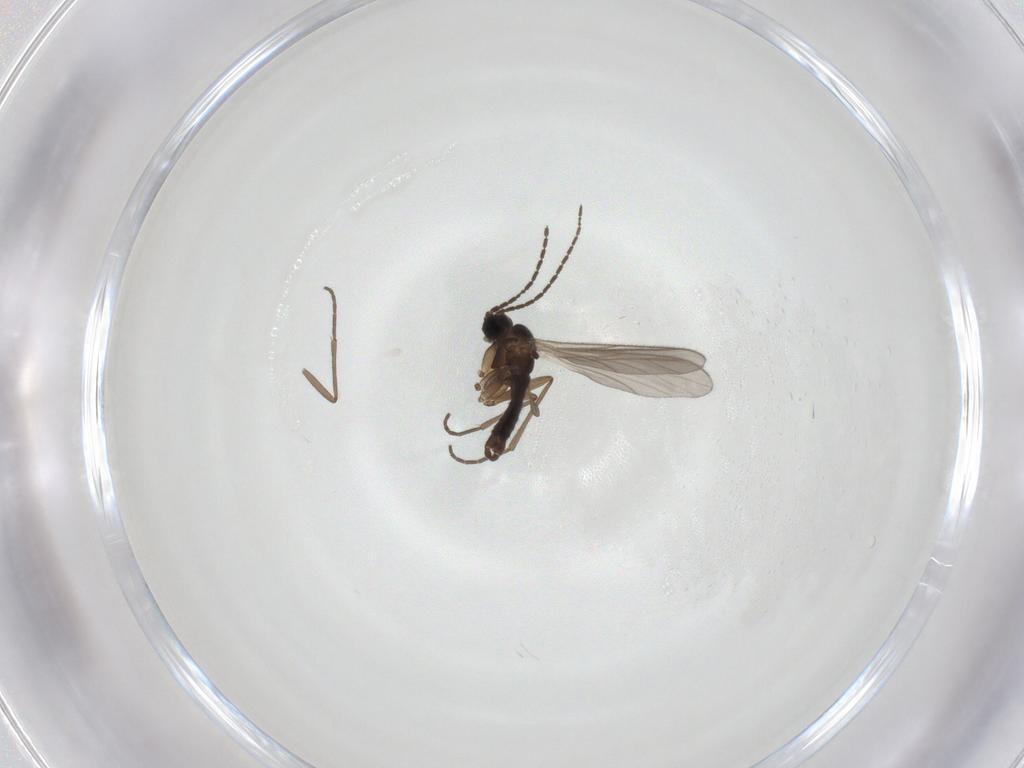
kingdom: Animalia
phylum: Arthropoda
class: Insecta
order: Diptera
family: Sciaridae
